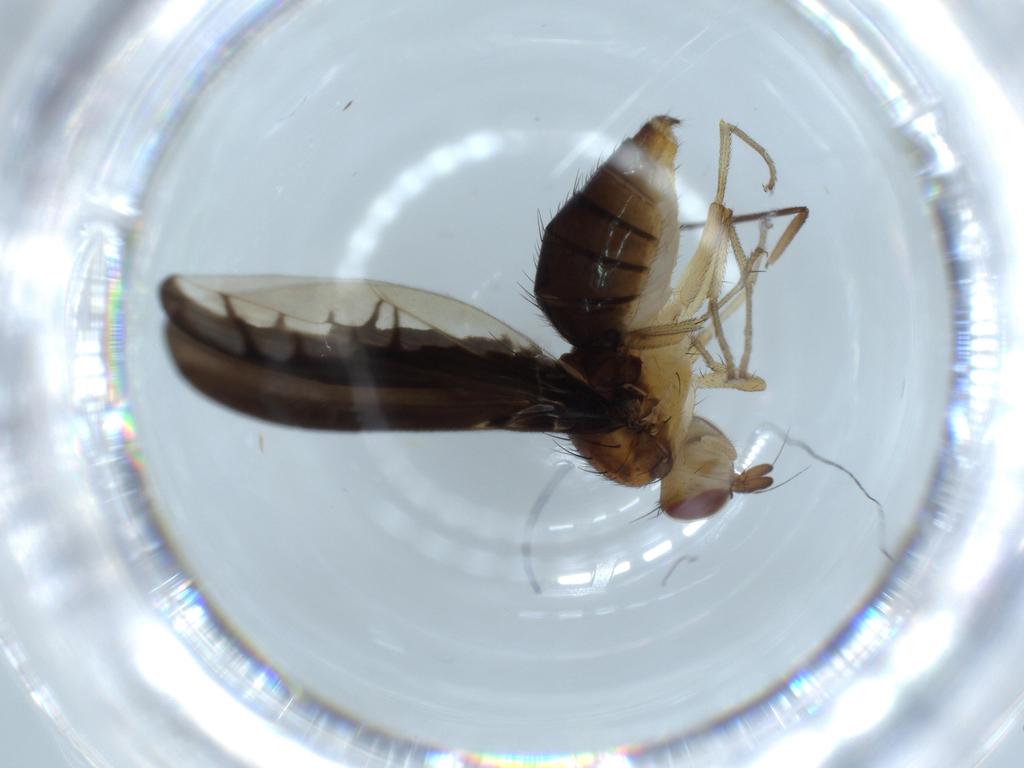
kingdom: Animalia
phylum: Arthropoda
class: Insecta
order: Diptera
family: Sciaridae
